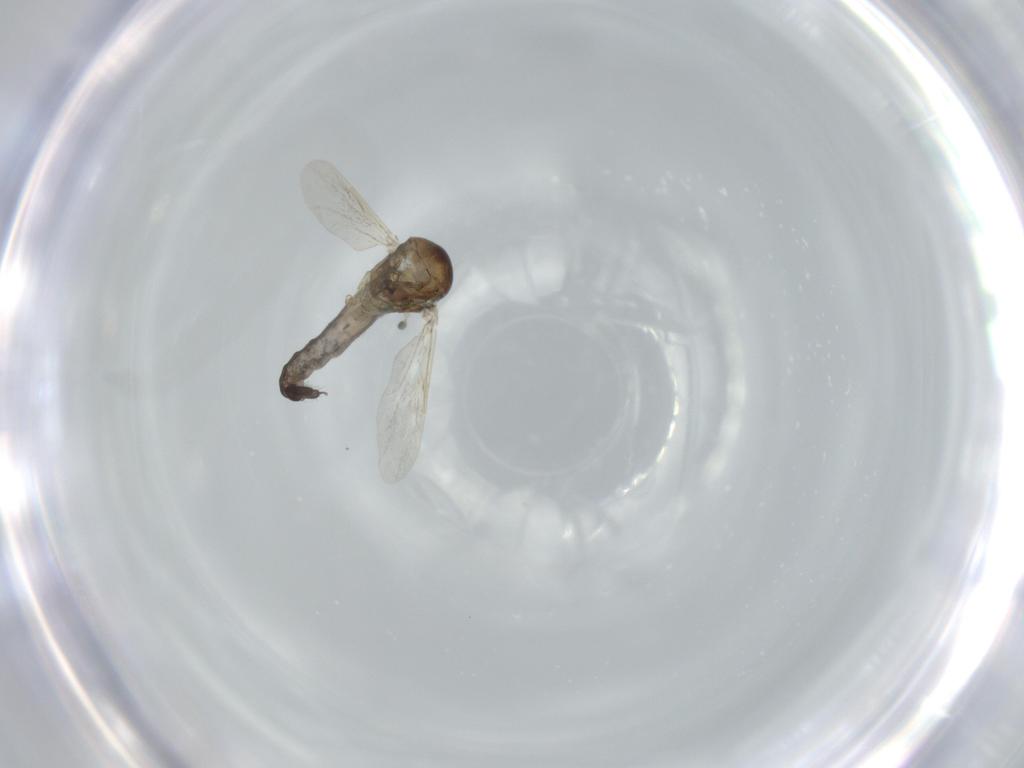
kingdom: Animalia
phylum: Arthropoda
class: Insecta
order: Diptera
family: Ceratopogonidae
